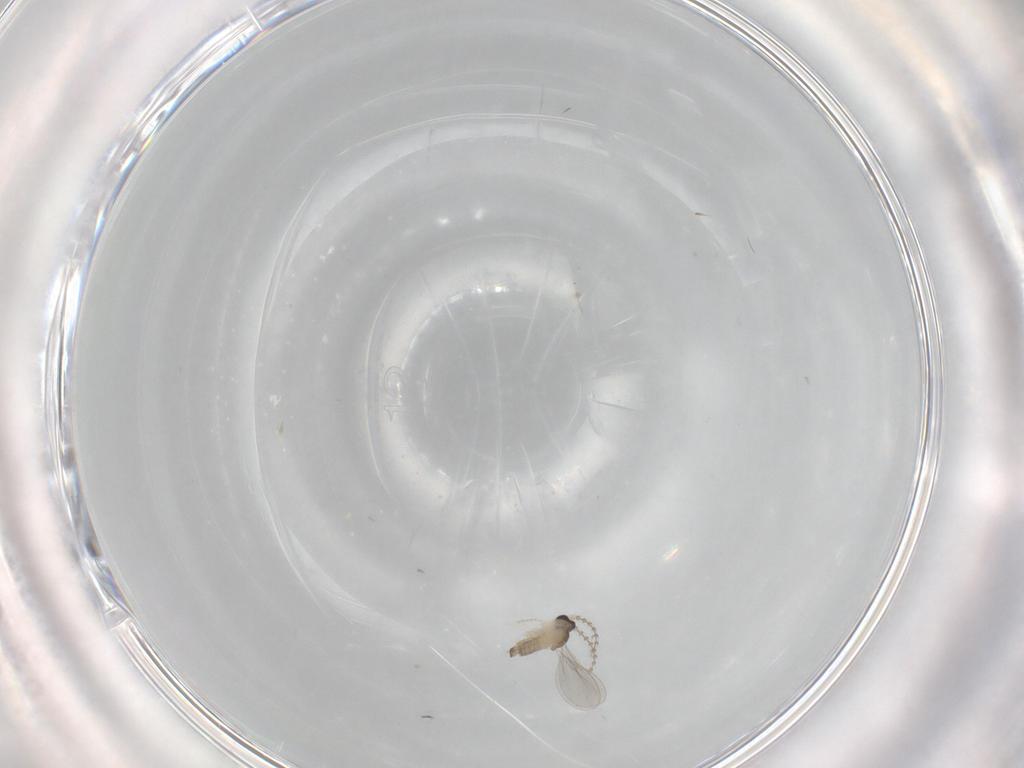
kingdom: Animalia
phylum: Arthropoda
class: Insecta
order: Diptera
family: Cecidomyiidae
